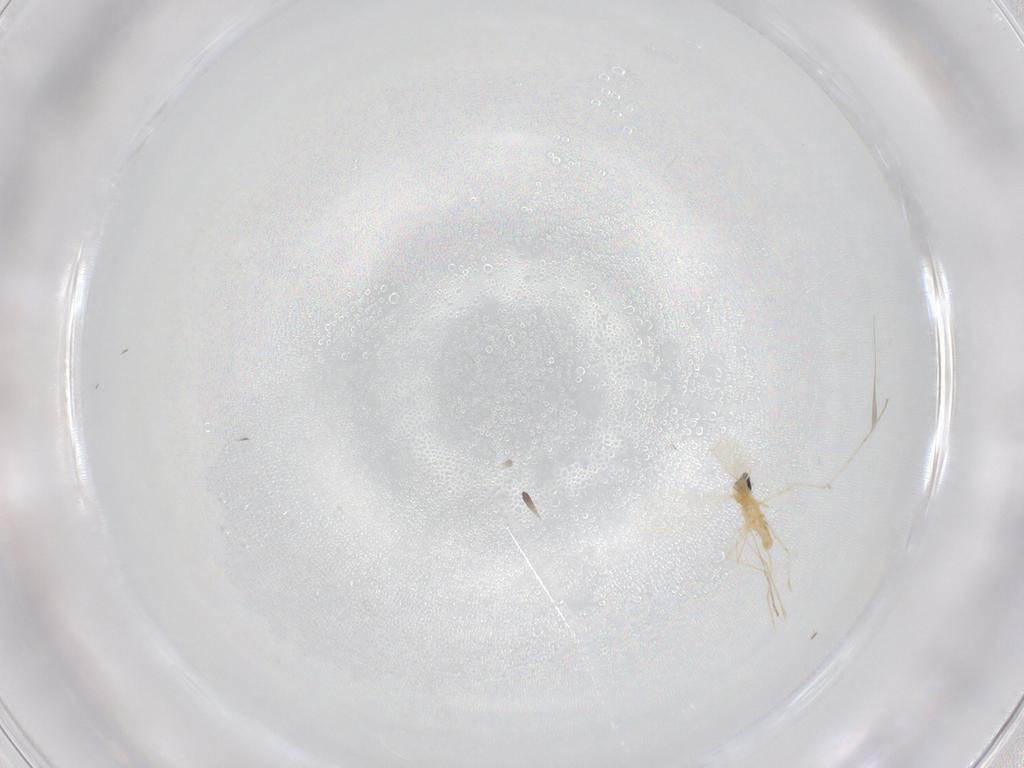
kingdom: Animalia
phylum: Arthropoda
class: Insecta
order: Diptera
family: Cecidomyiidae
